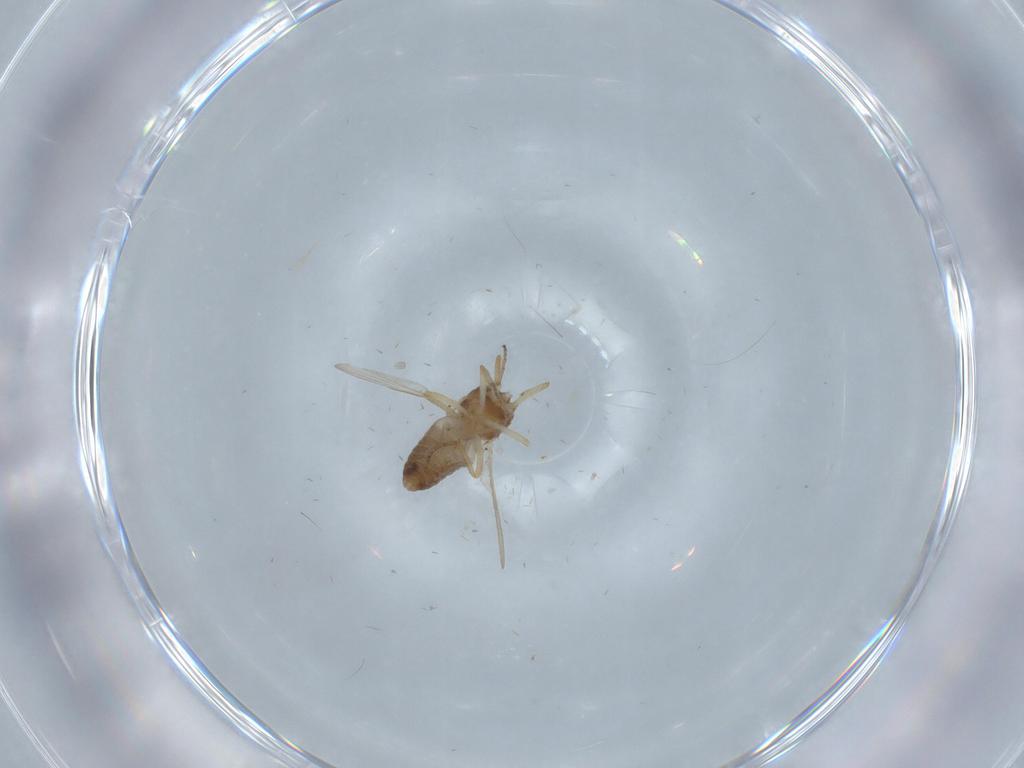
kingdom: Animalia
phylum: Arthropoda
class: Insecta
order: Diptera
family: Ceratopogonidae
